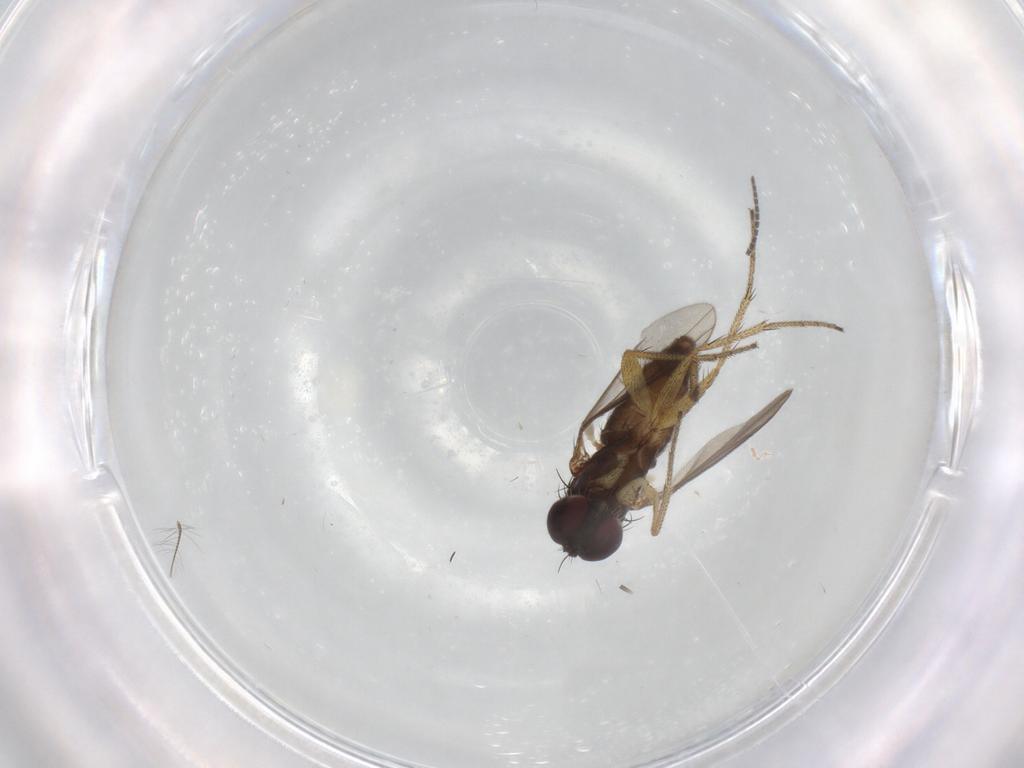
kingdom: Animalia
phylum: Arthropoda
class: Insecta
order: Diptera
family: Sciaridae
